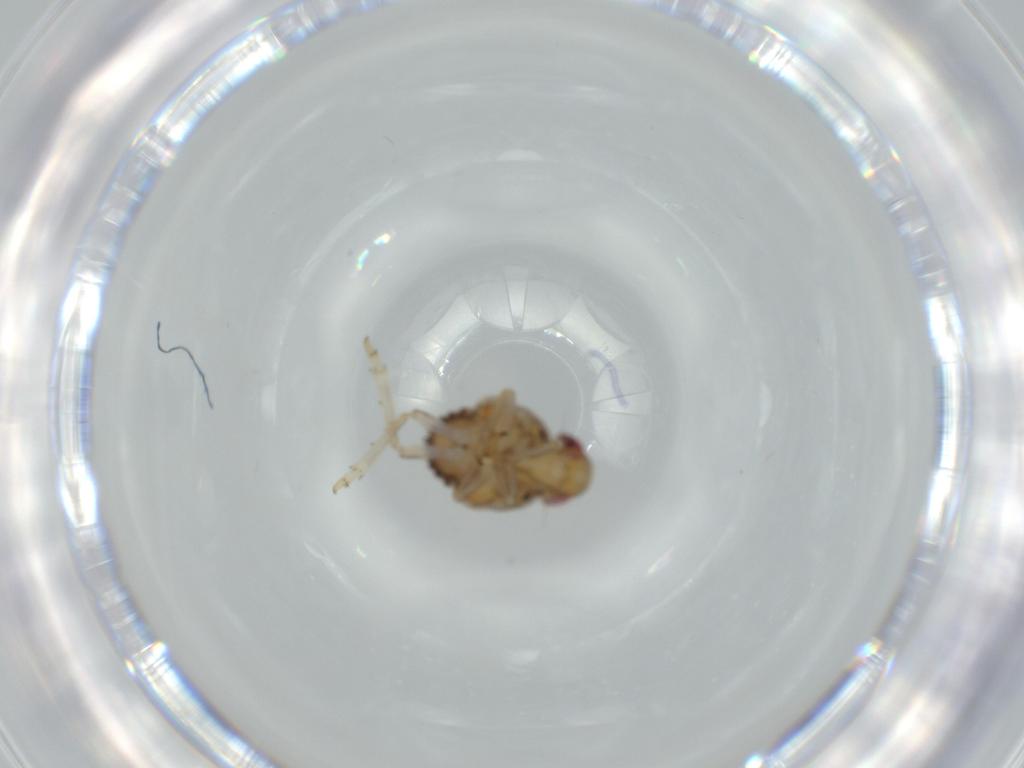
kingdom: Animalia
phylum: Arthropoda
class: Insecta
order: Hemiptera
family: Issidae
